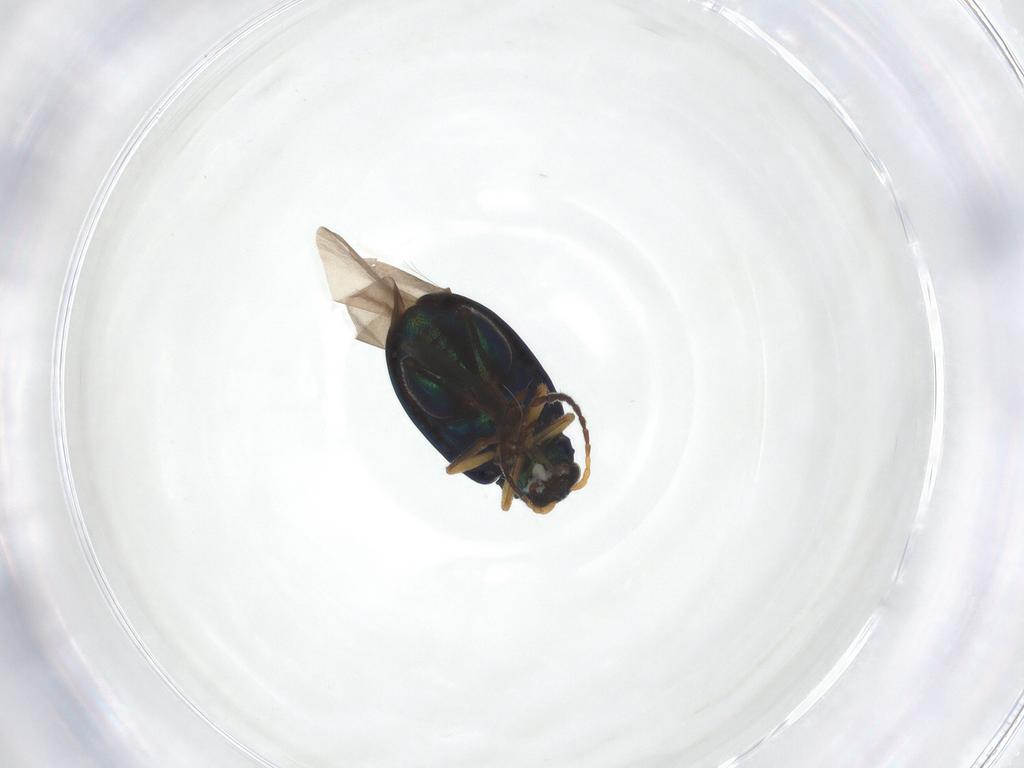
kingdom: Animalia
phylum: Arthropoda
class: Insecta
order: Coleoptera
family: Chrysomelidae
